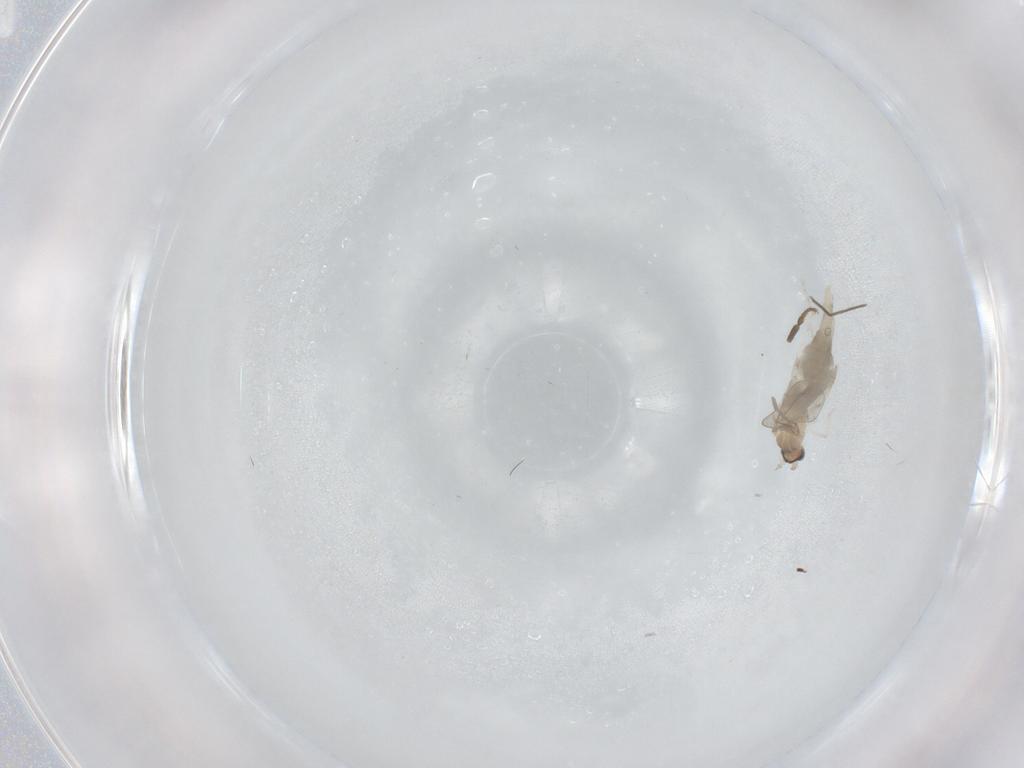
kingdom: Animalia
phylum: Arthropoda
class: Insecta
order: Diptera
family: Cecidomyiidae
